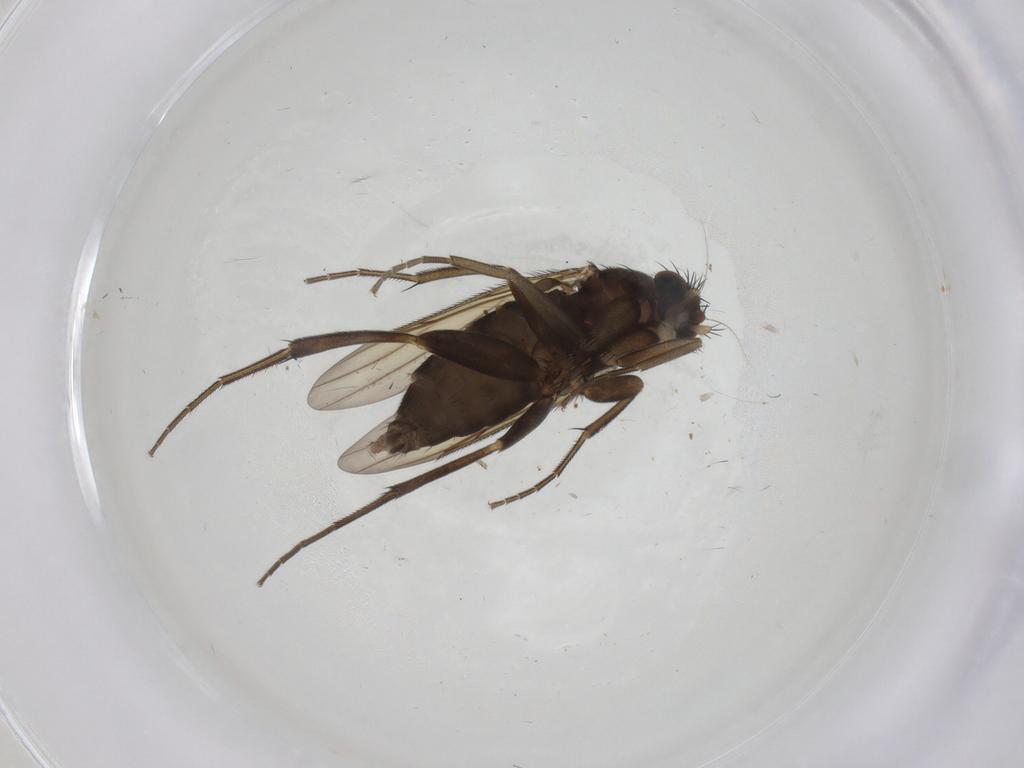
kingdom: Animalia
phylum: Arthropoda
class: Insecta
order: Diptera
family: Phoridae
